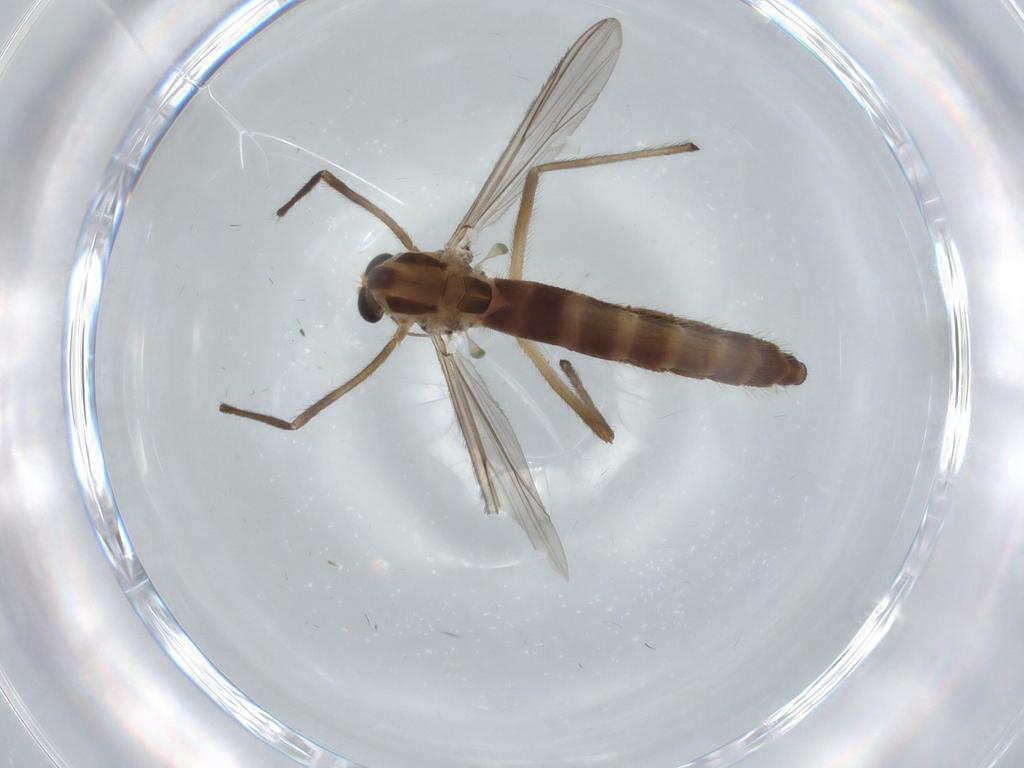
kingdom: Animalia
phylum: Arthropoda
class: Insecta
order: Diptera
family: Chironomidae
